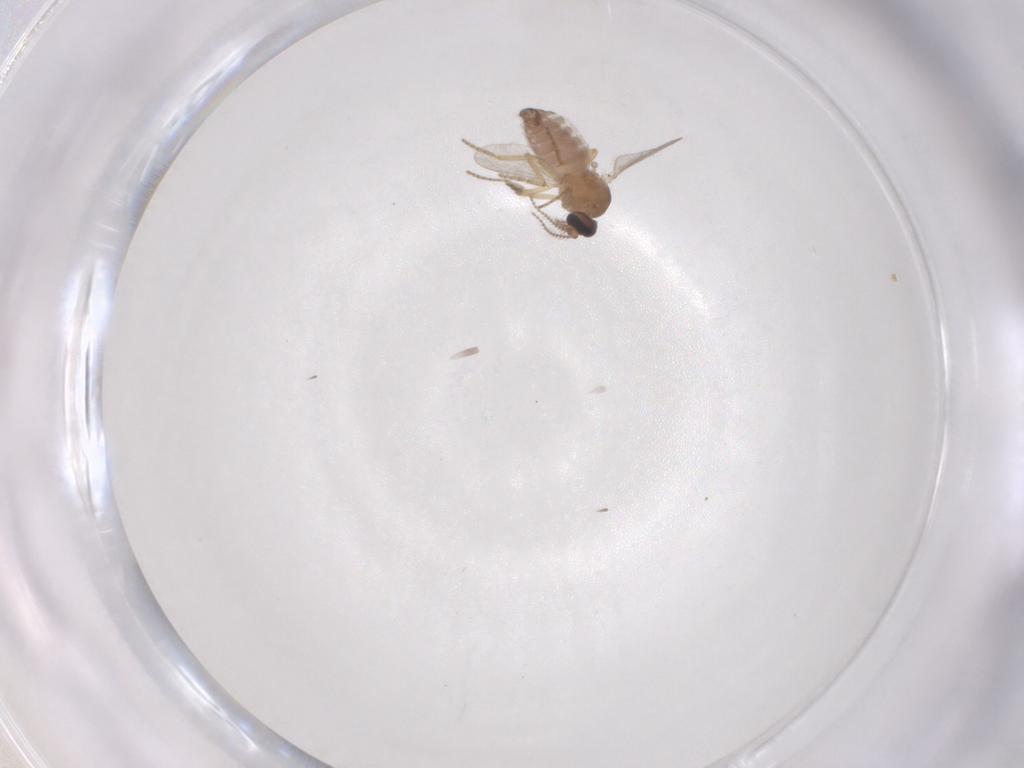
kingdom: Animalia
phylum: Arthropoda
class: Insecta
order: Diptera
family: Ceratopogonidae
